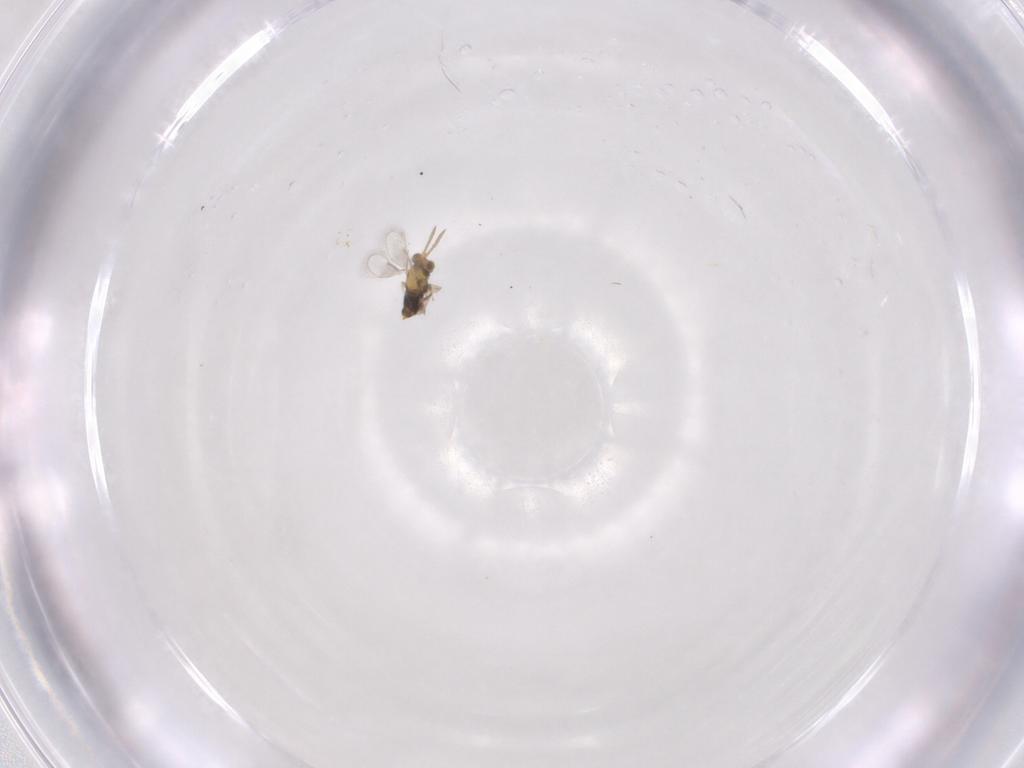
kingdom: Animalia
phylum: Arthropoda
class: Insecta
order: Hymenoptera
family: Aphelinidae
